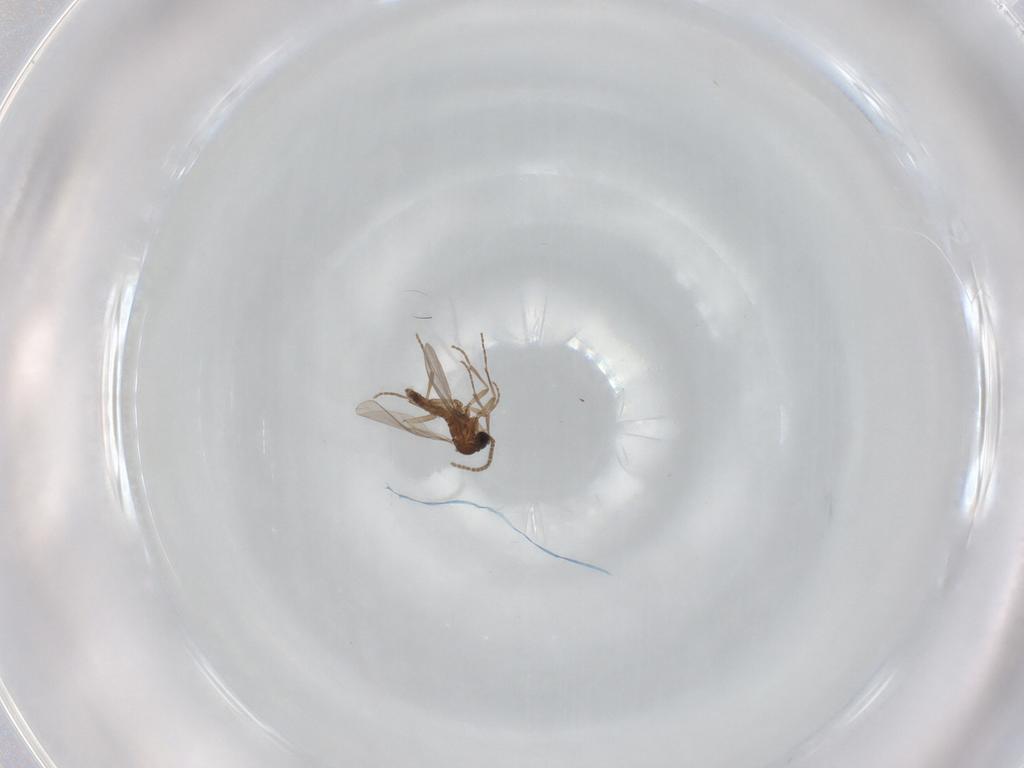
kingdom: Animalia
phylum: Arthropoda
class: Insecta
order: Diptera
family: Sciaridae
